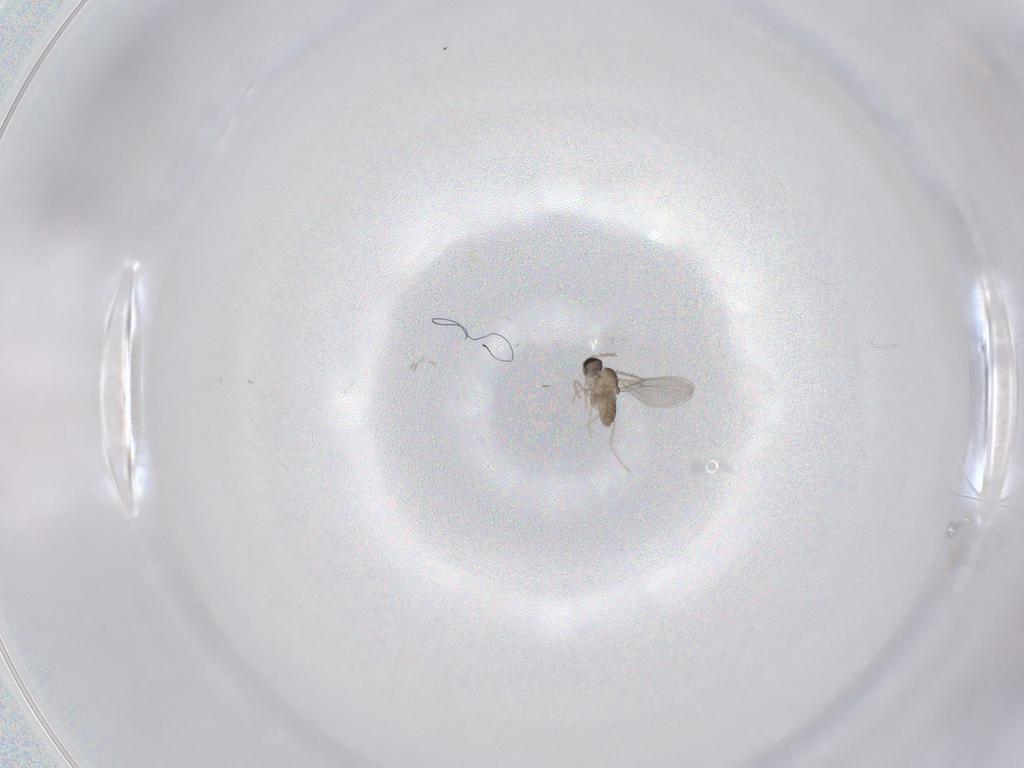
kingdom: Animalia
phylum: Arthropoda
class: Insecta
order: Diptera
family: Cecidomyiidae
